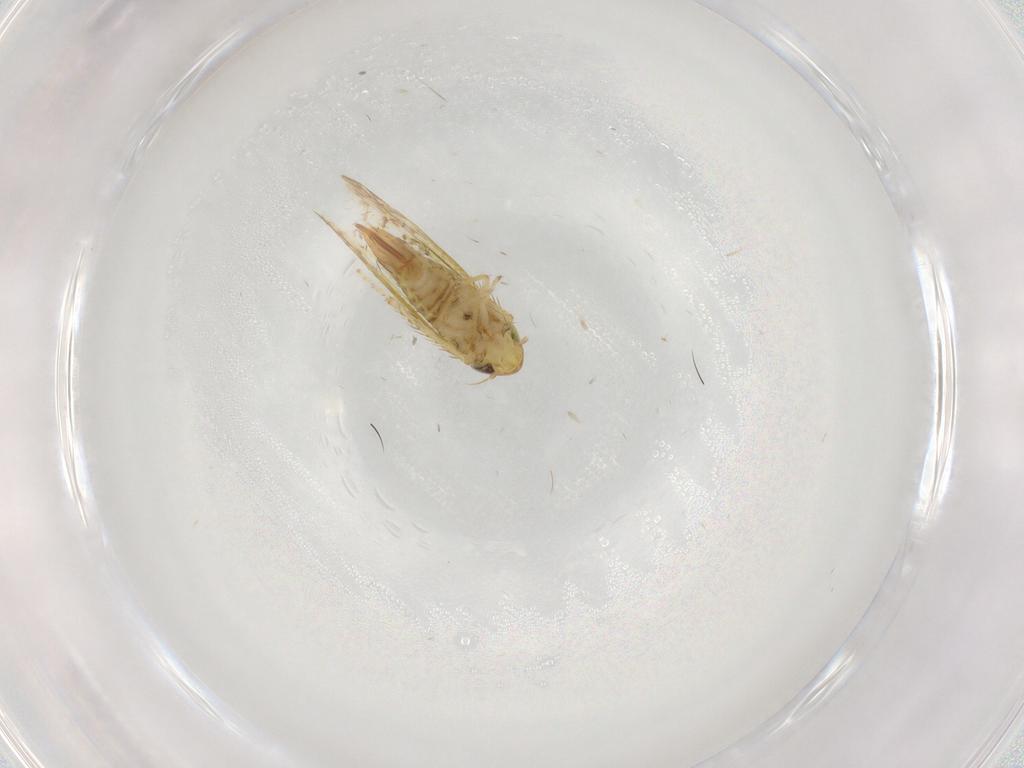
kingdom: Animalia
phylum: Arthropoda
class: Insecta
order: Hemiptera
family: Cicadellidae
